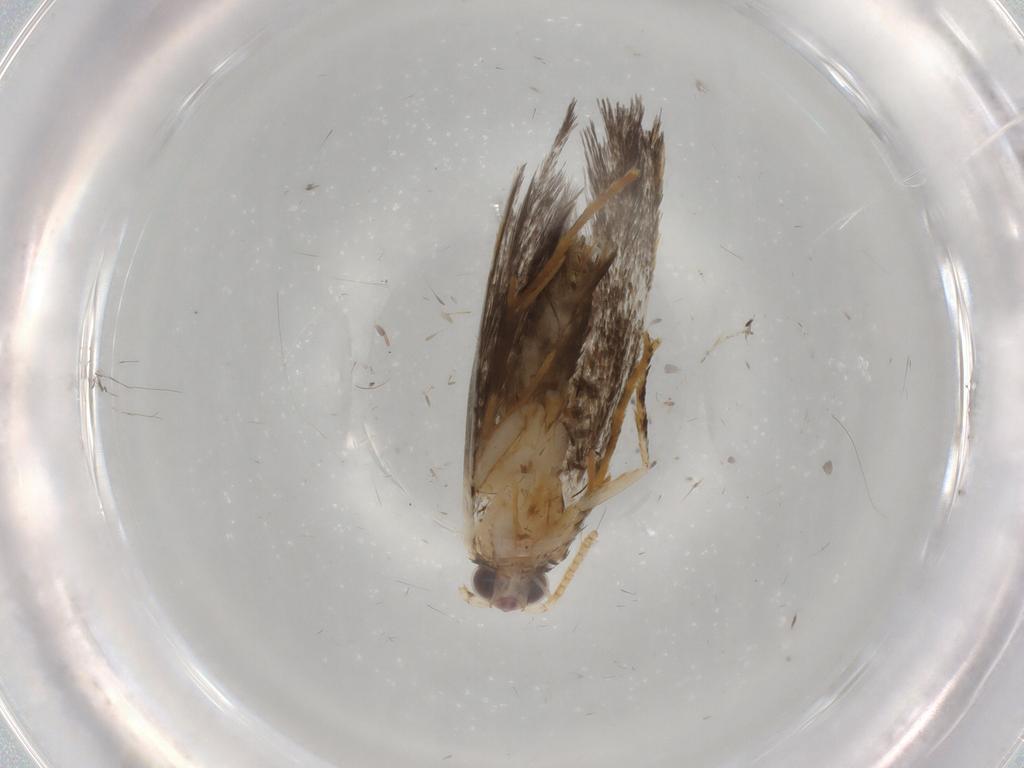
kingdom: Animalia
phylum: Arthropoda
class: Insecta
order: Lepidoptera
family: Tineidae
